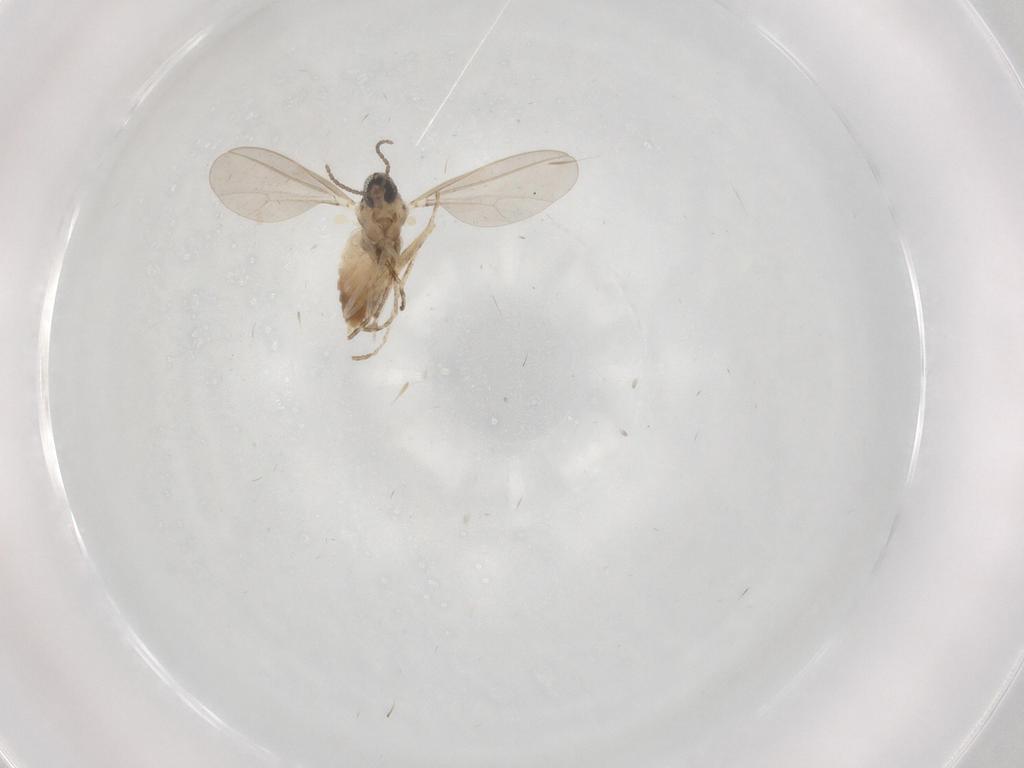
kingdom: Animalia
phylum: Arthropoda
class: Insecta
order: Diptera
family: Cecidomyiidae
